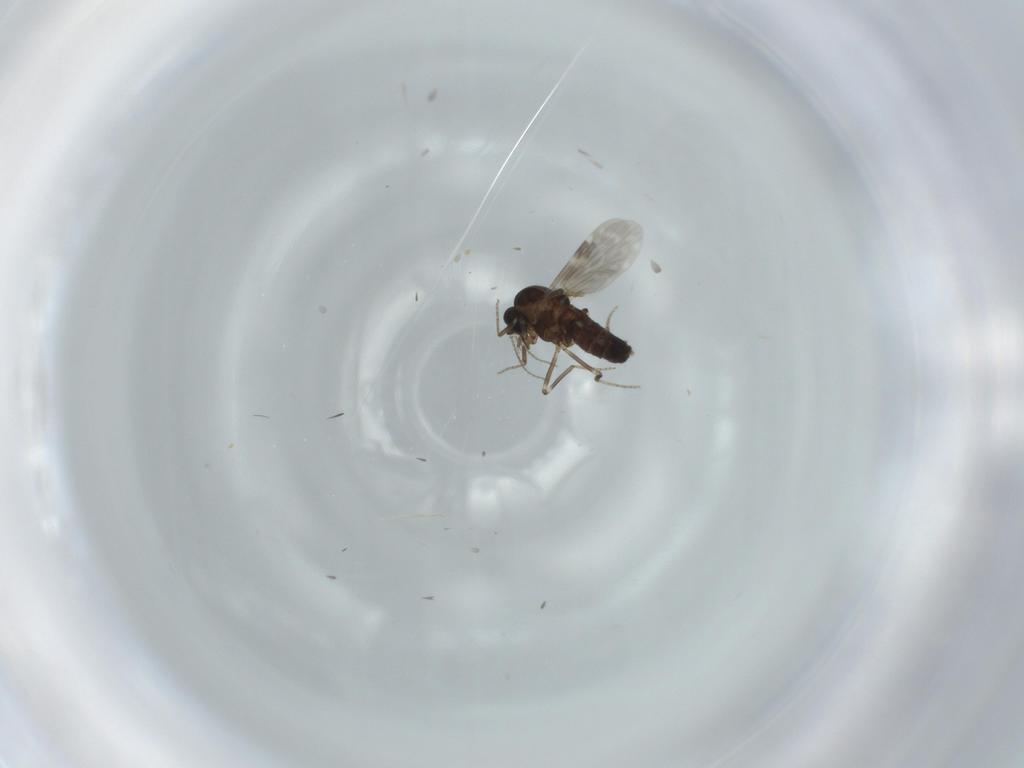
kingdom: Animalia
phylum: Arthropoda
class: Insecta
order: Diptera
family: Ceratopogonidae
